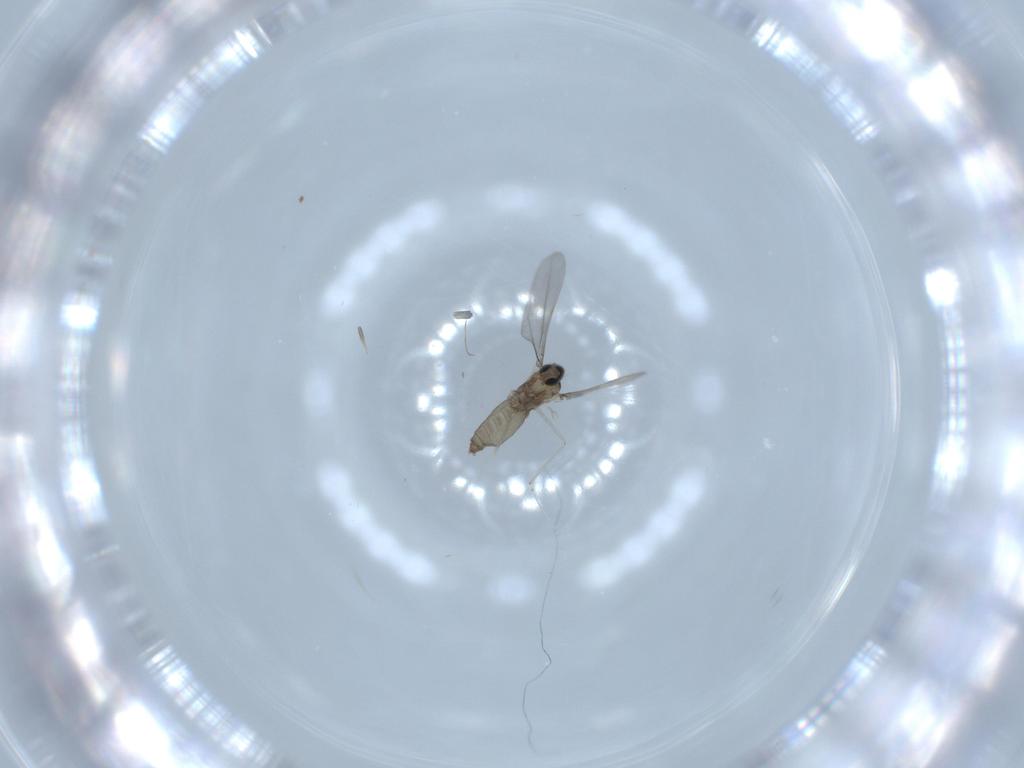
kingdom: Animalia
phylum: Arthropoda
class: Insecta
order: Diptera
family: Cecidomyiidae
